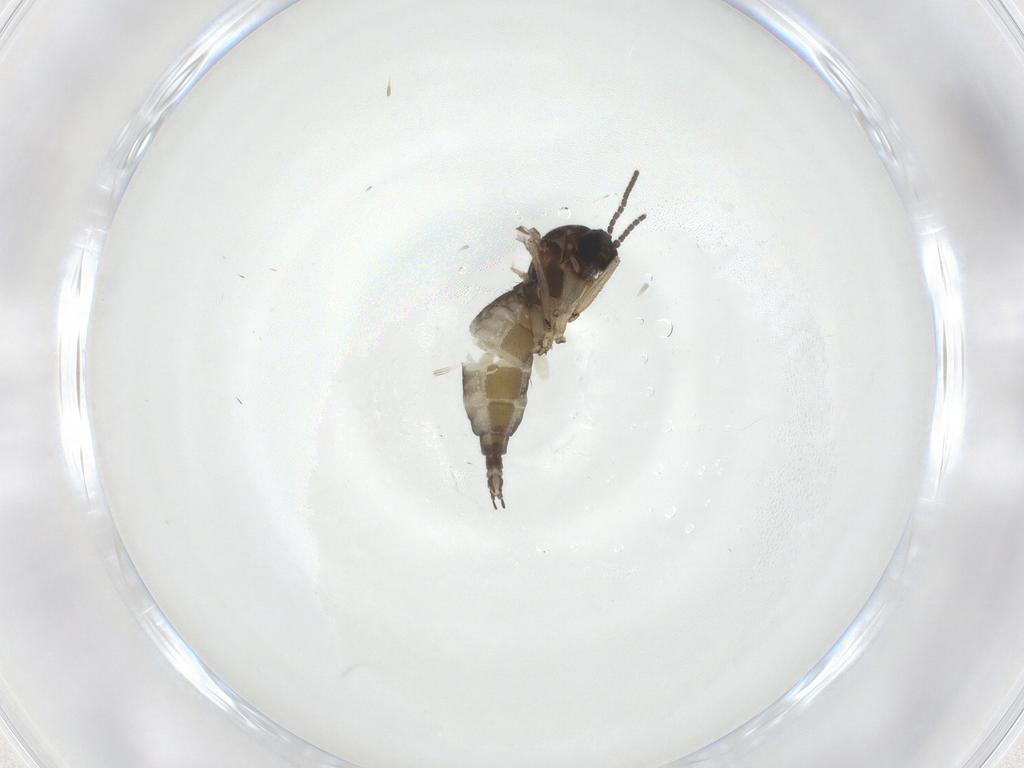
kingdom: Animalia
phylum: Arthropoda
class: Insecta
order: Diptera
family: Sciaridae
